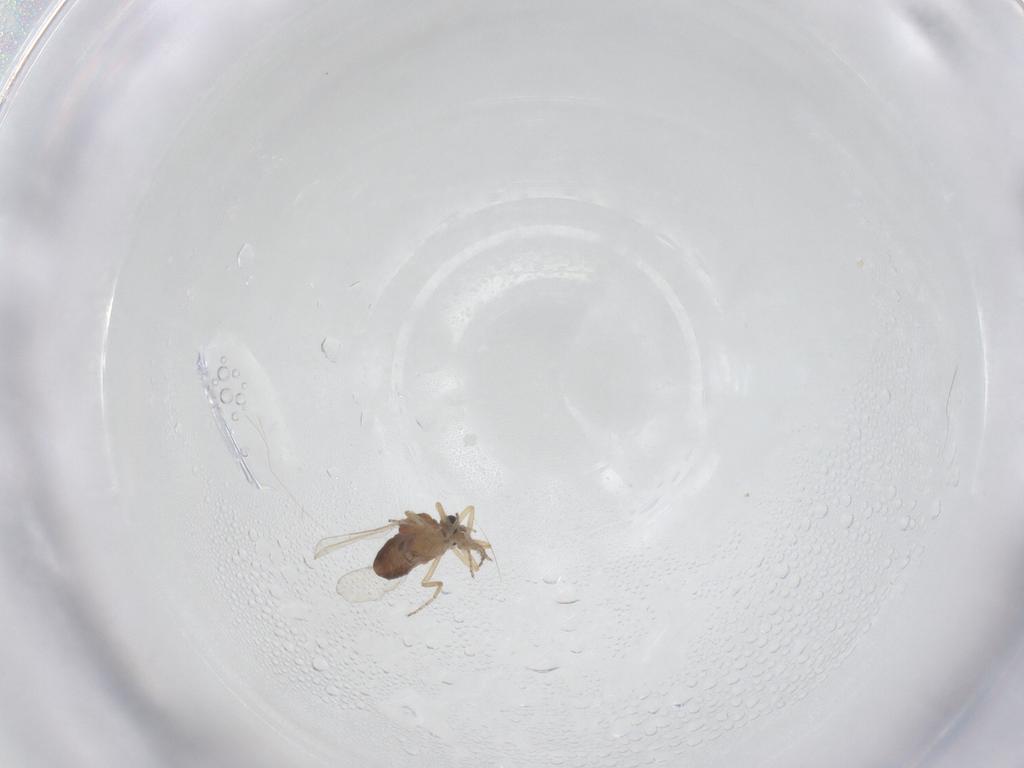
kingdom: Animalia
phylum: Arthropoda
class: Insecta
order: Diptera
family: Ceratopogonidae
